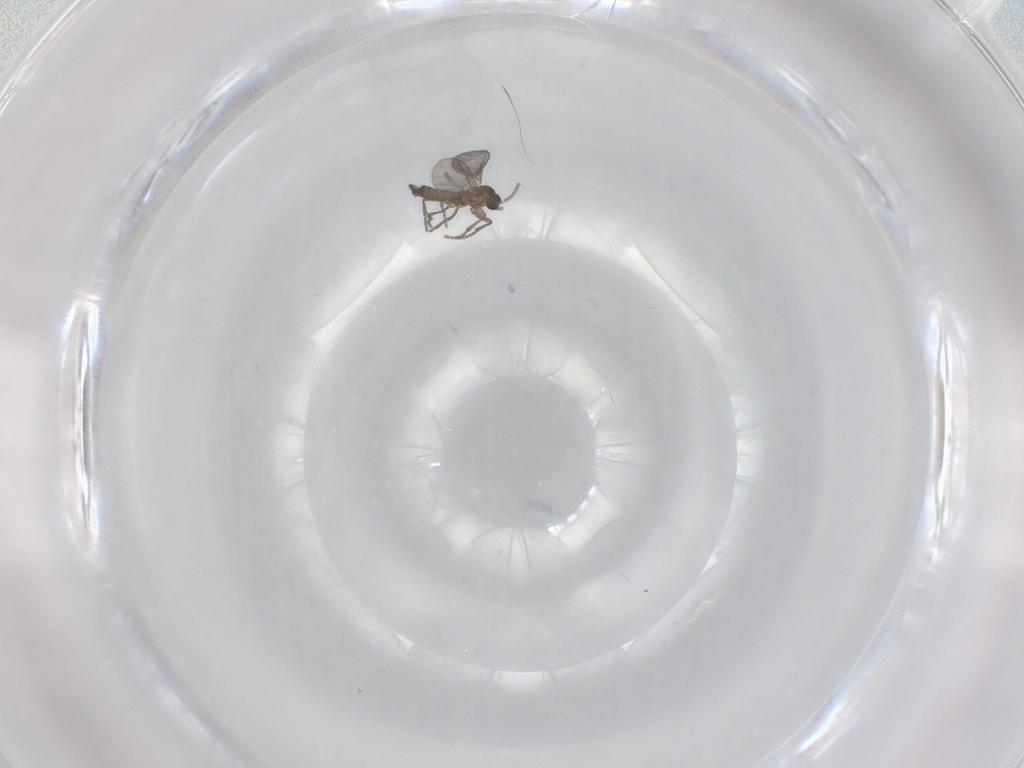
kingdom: Animalia
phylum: Arthropoda
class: Insecta
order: Diptera
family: Sciaridae
